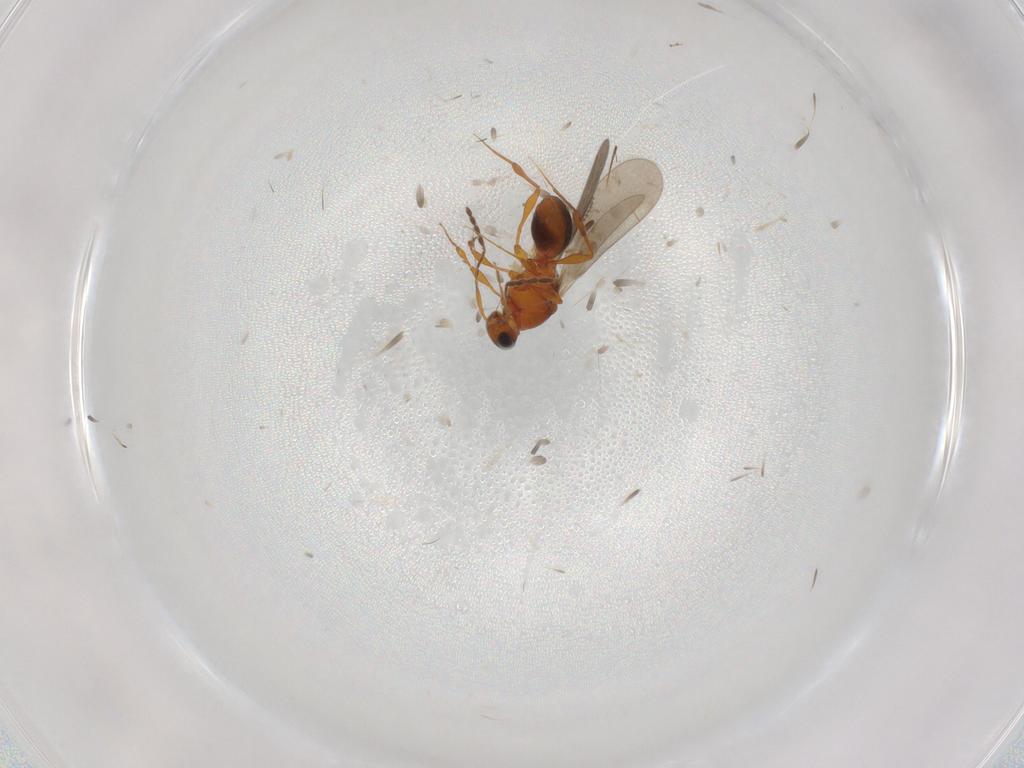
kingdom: Animalia
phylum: Arthropoda
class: Insecta
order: Hymenoptera
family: Platygastridae
